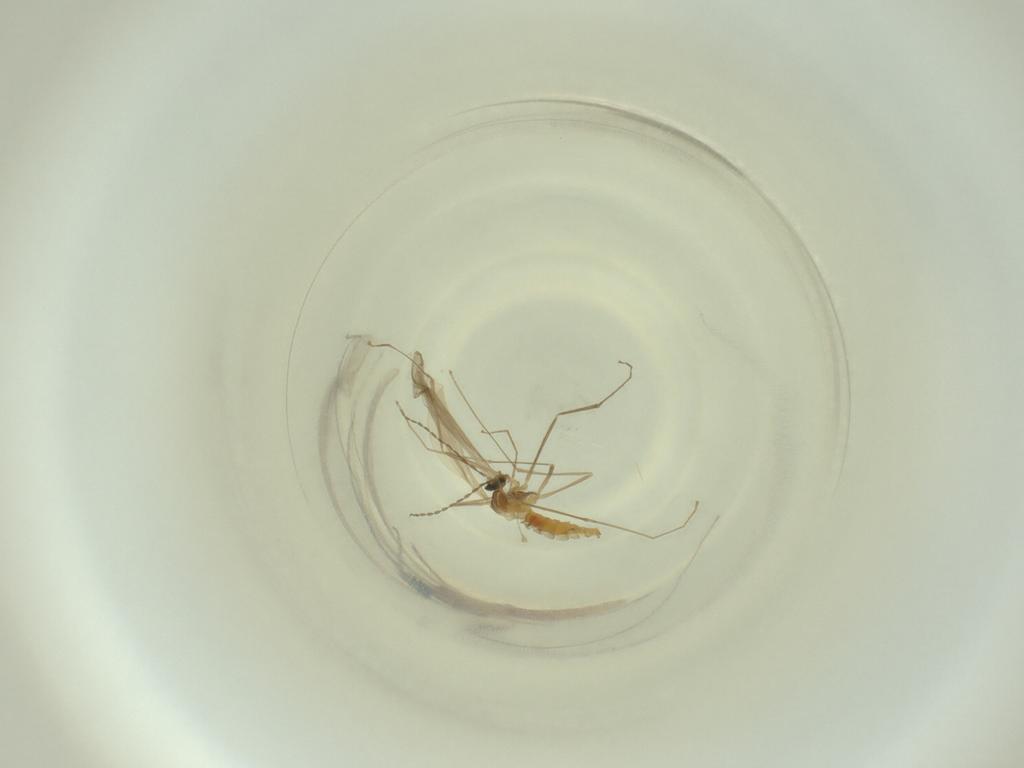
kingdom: Animalia
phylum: Arthropoda
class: Insecta
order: Diptera
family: Cecidomyiidae
